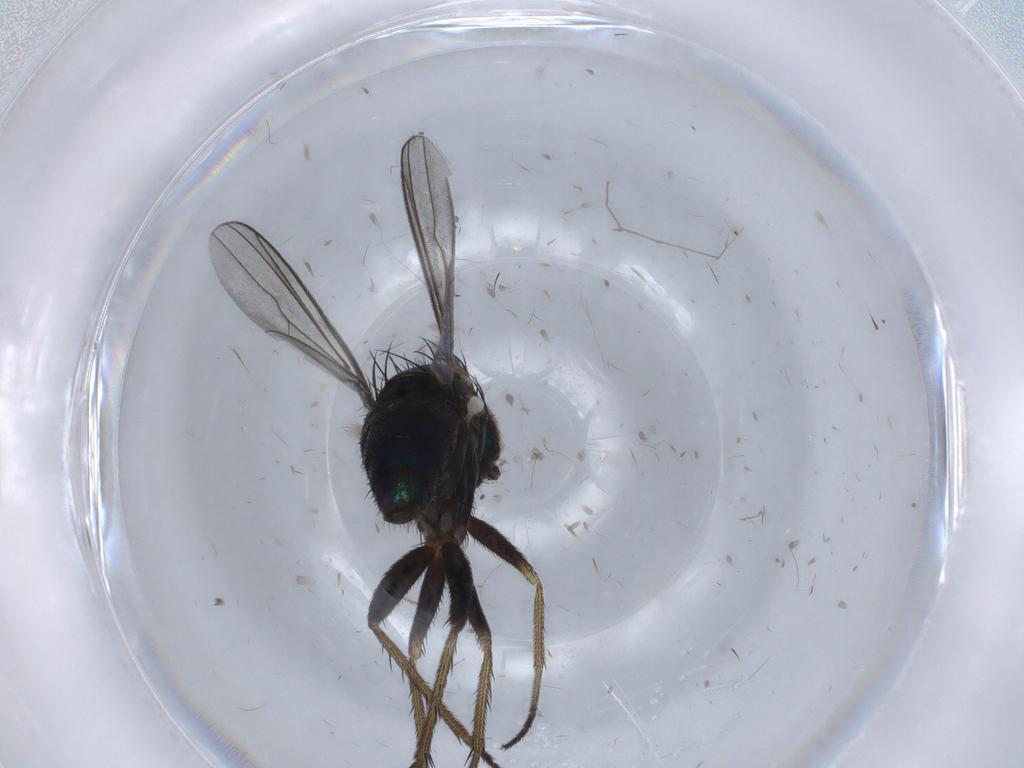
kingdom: Animalia
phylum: Arthropoda
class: Insecta
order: Diptera
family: Dolichopodidae
